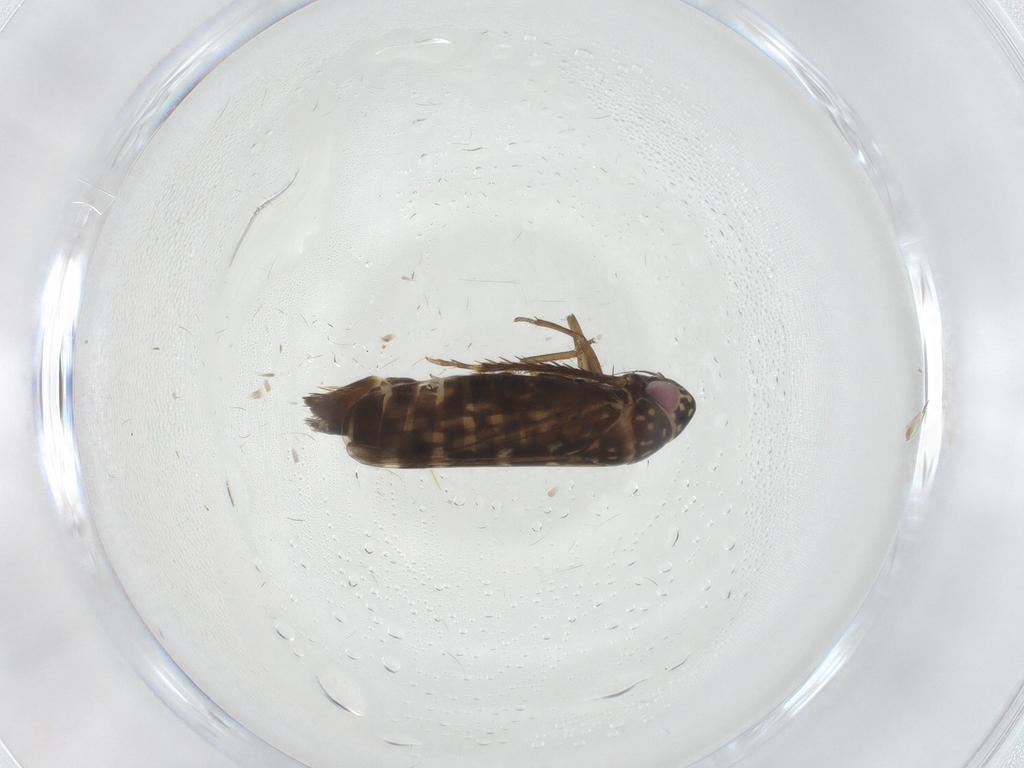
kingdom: Animalia
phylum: Arthropoda
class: Insecta
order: Hemiptera
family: Cicadellidae
